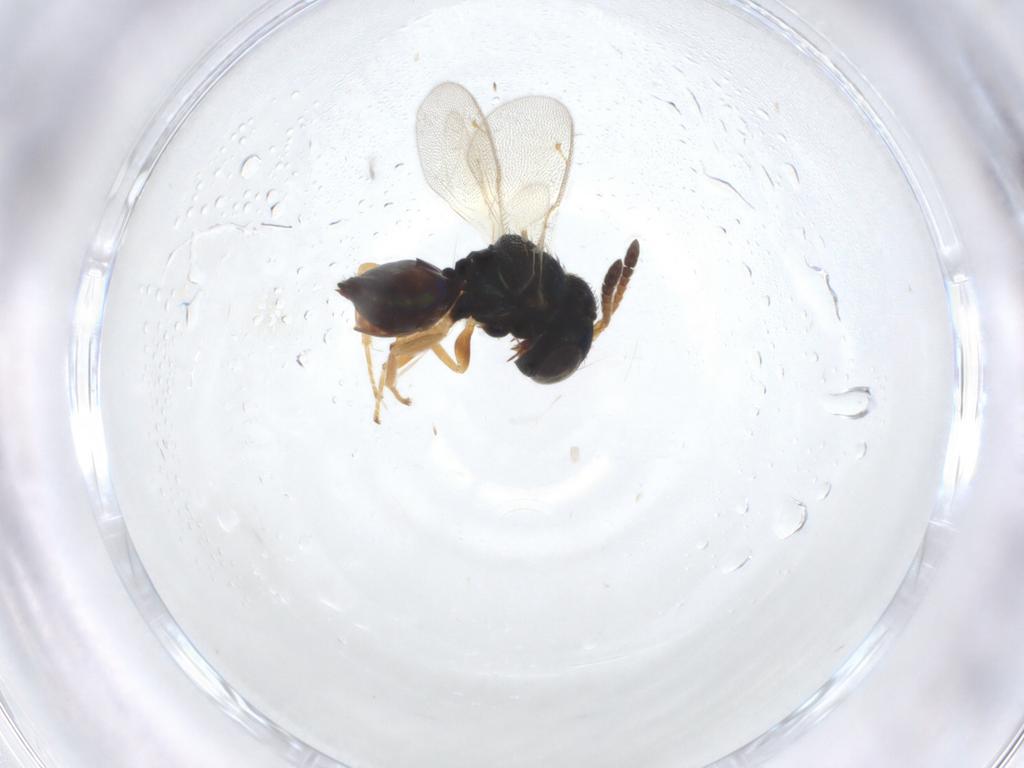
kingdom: Animalia
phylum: Arthropoda
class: Insecta
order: Hymenoptera
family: Pteromalidae
